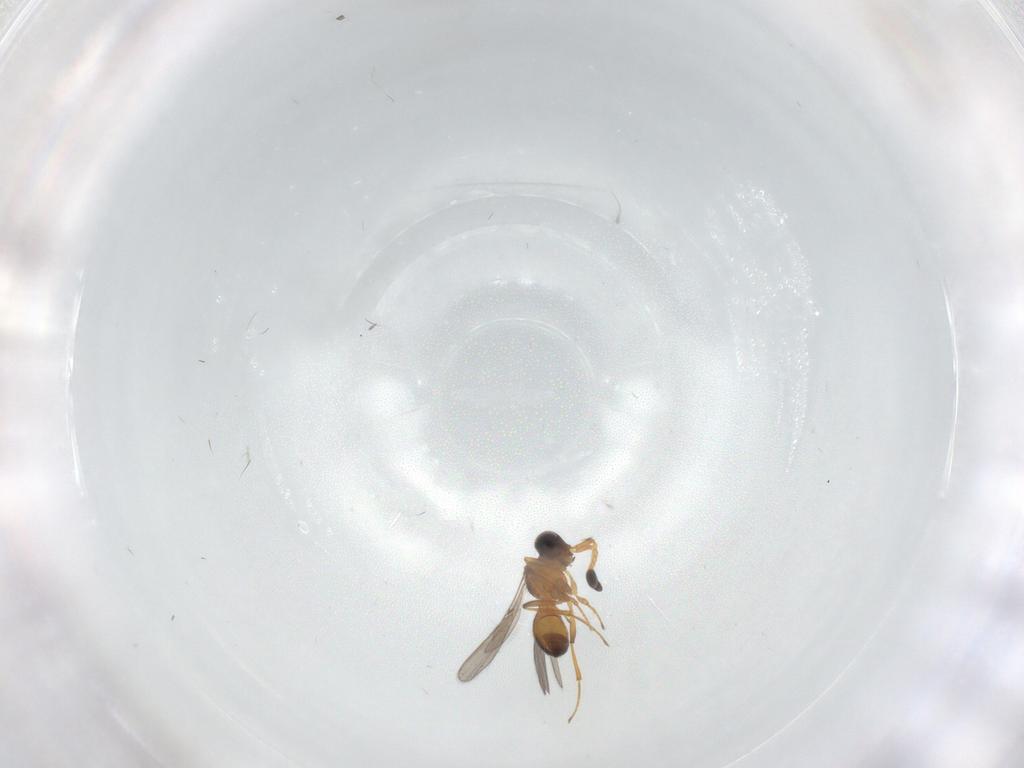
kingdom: Animalia
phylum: Arthropoda
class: Insecta
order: Hymenoptera
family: Scelionidae
